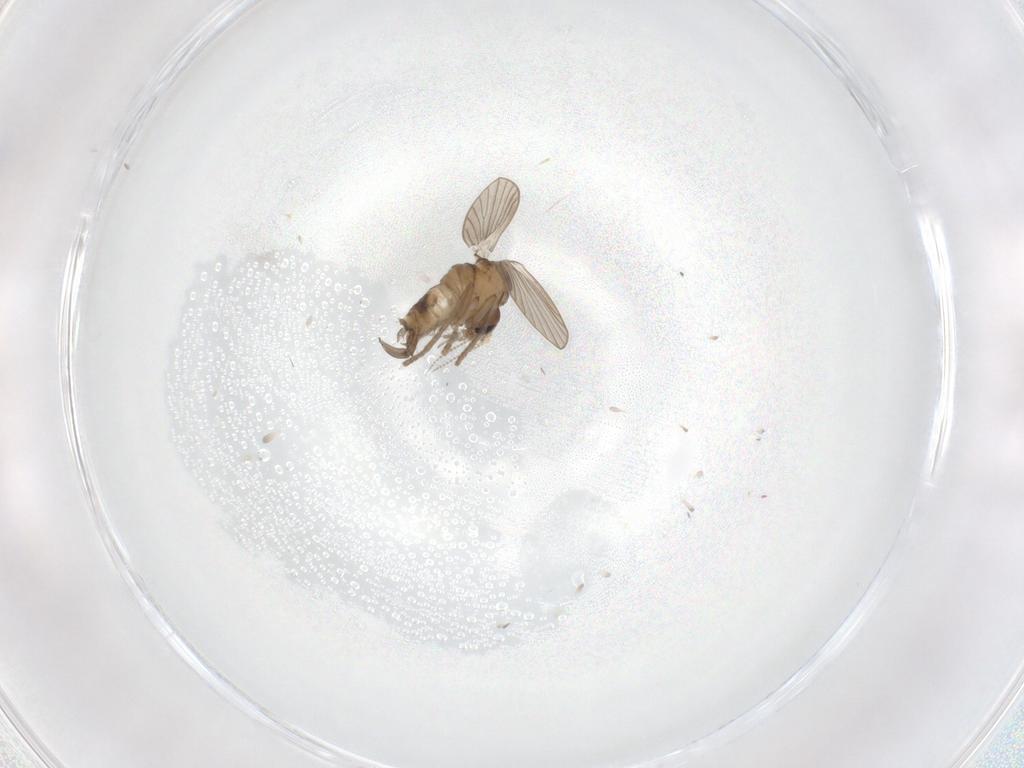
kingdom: Animalia
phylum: Arthropoda
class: Insecta
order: Diptera
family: Psychodidae
